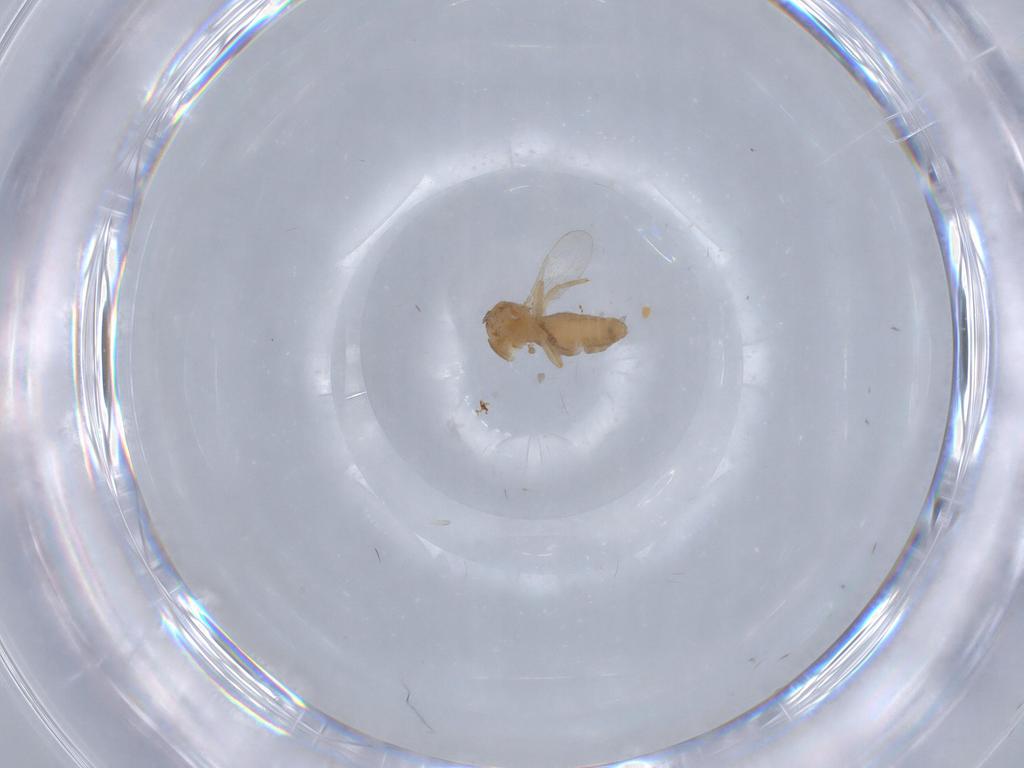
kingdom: Animalia
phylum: Arthropoda
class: Insecta
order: Diptera
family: Ceratopogonidae
